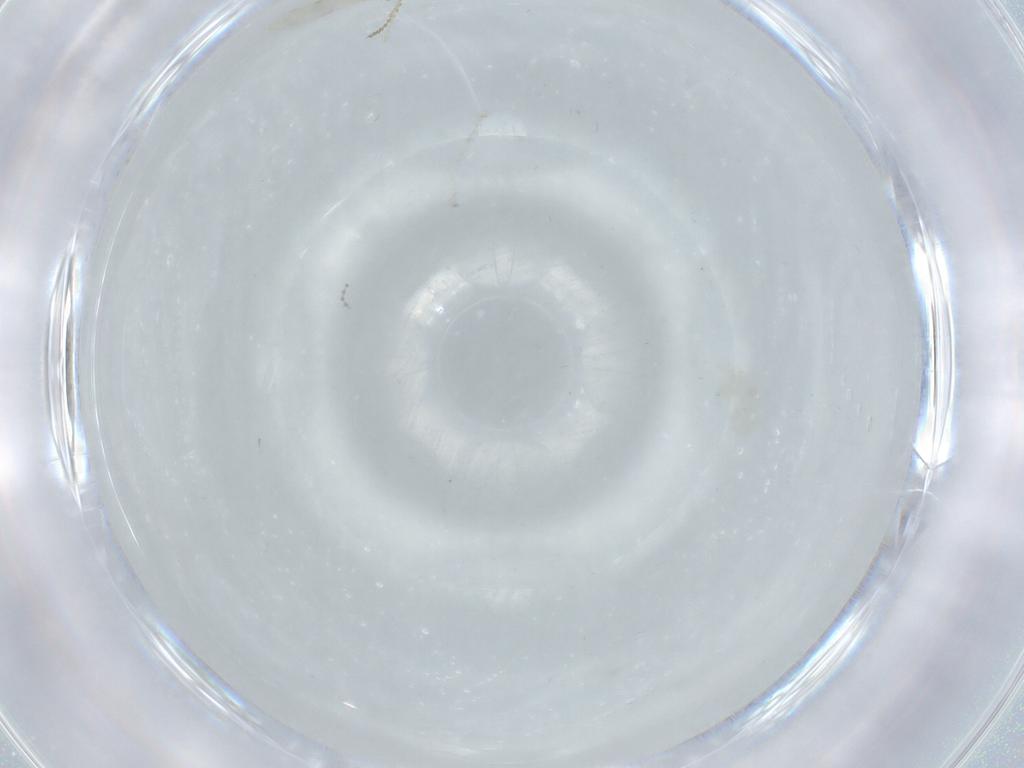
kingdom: Animalia
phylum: Arthropoda
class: Insecta
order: Diptera
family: Cecidomyiidae
